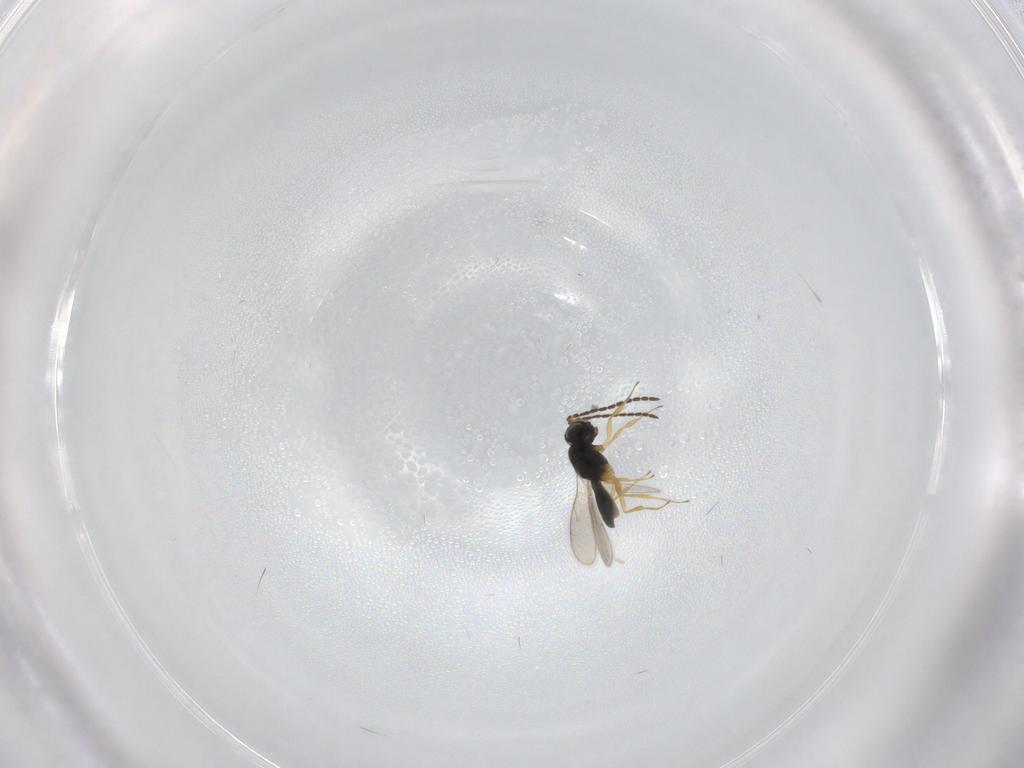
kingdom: Animalia
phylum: Arthropoda
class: Insecta
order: Hymenoptera
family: Scelionidae
